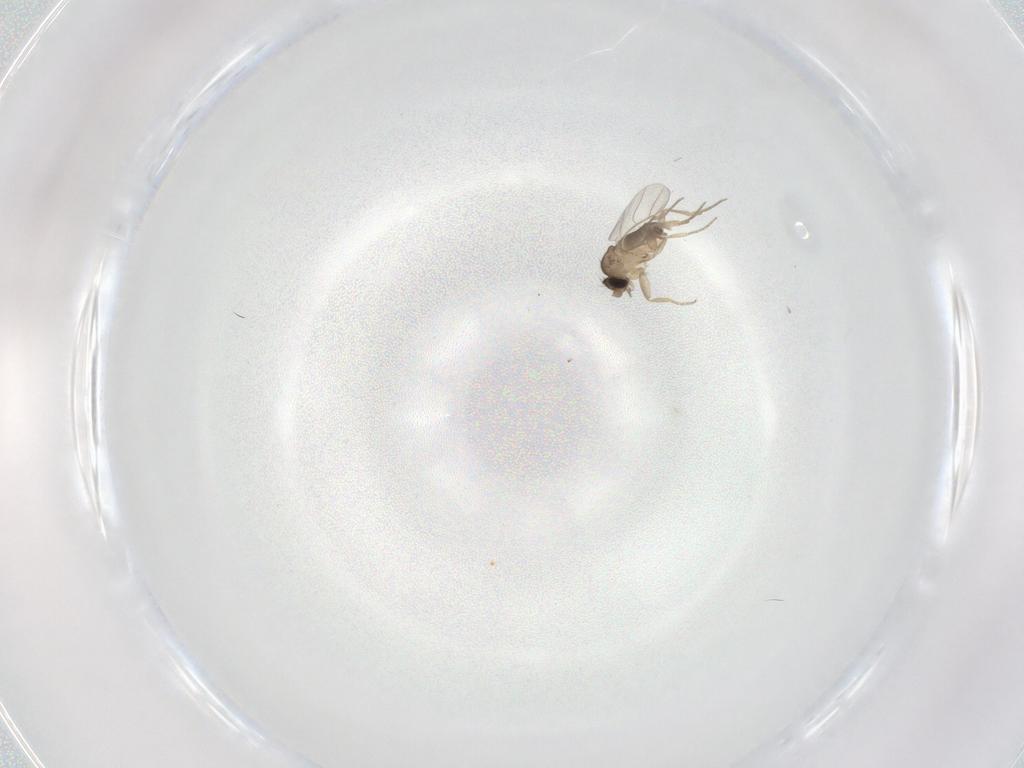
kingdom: Animalia
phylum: Arthropoda
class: Insecta
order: Diptera
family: Phoridae
